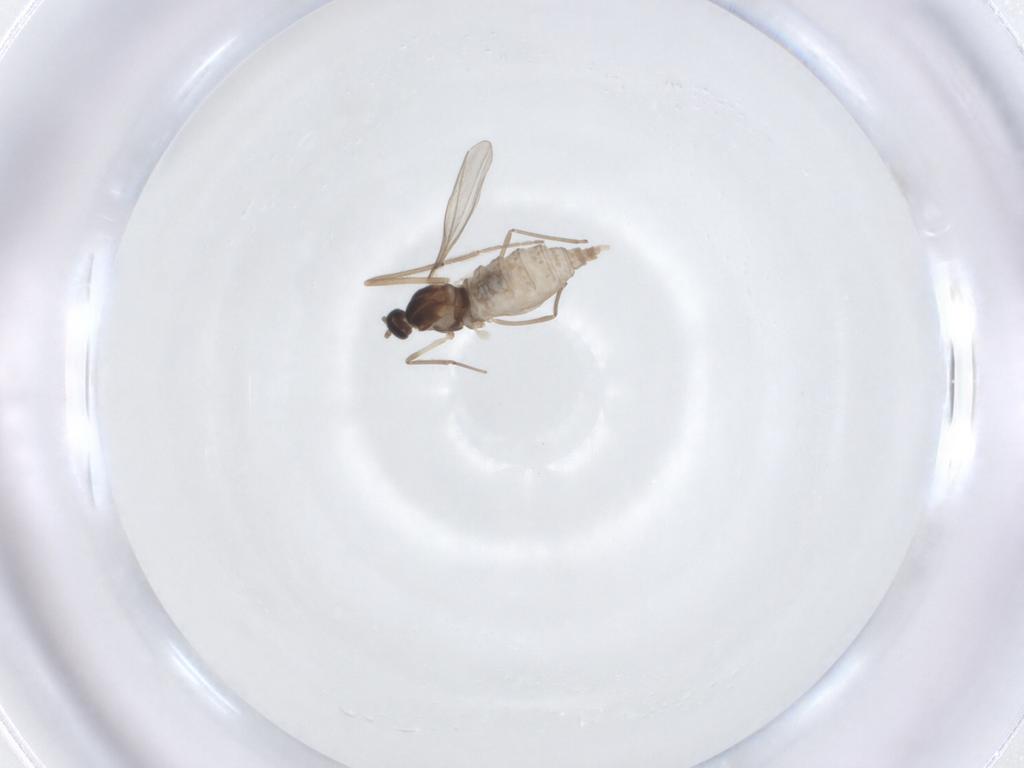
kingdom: Animalia
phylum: Arthropoda
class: Insecta
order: Diptera
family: Cecidomyiidae
